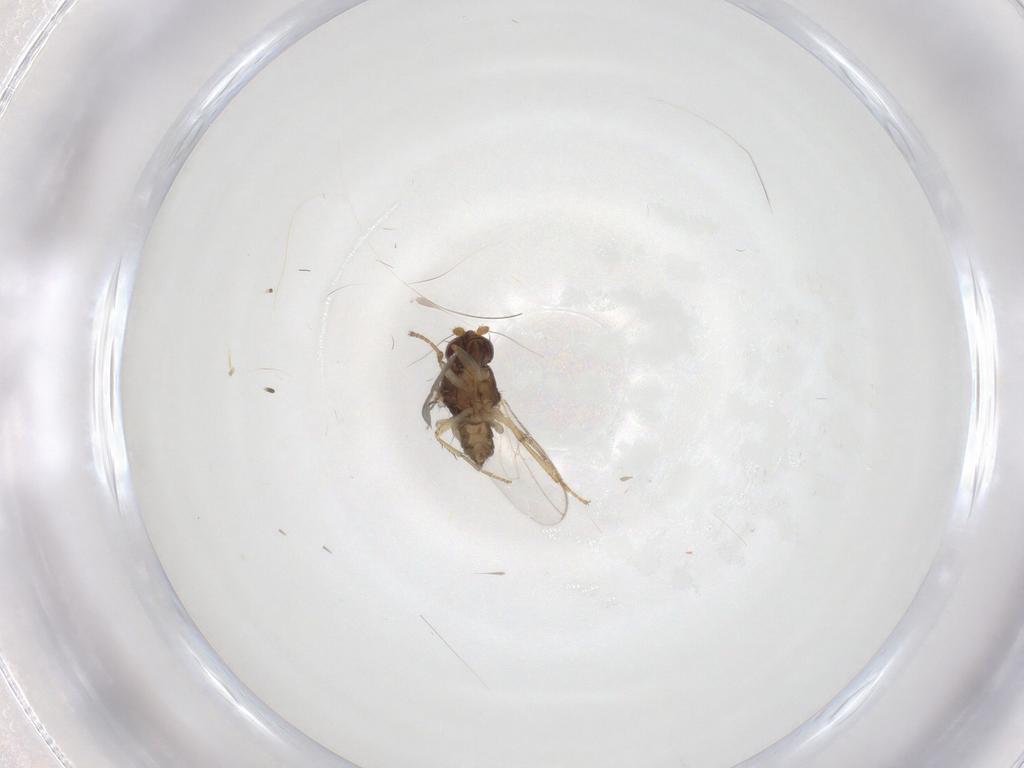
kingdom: Animalia
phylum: Arthropoda
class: Insecta
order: Diptera
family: Sphaeroceridae
